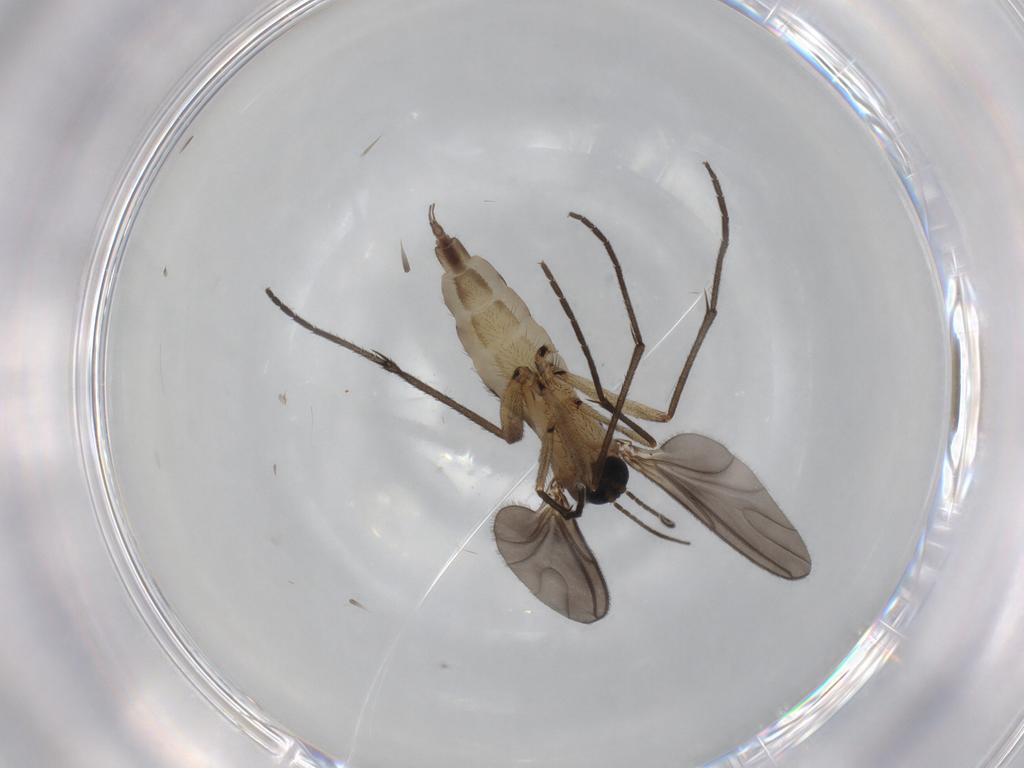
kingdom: Animalia
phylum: Arthropoda
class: Insecta
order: Diptera
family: Sciaridae
